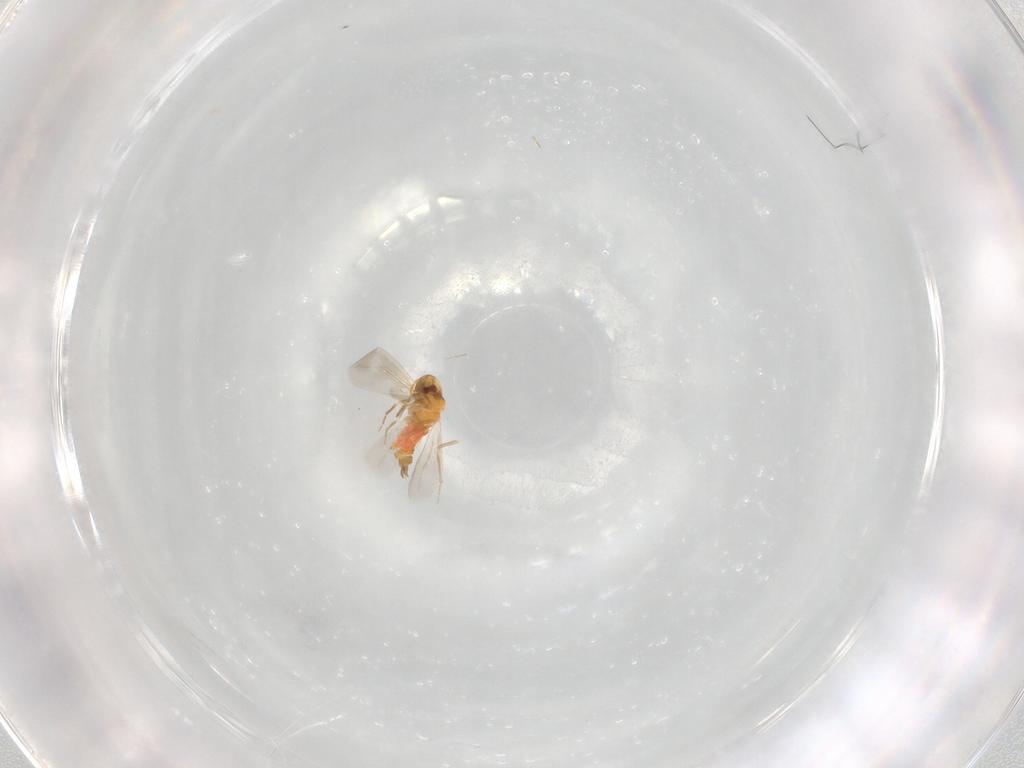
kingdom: Animalia
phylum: Arthropoda
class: Insecta
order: Hemiptera
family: Aleyrodidae
